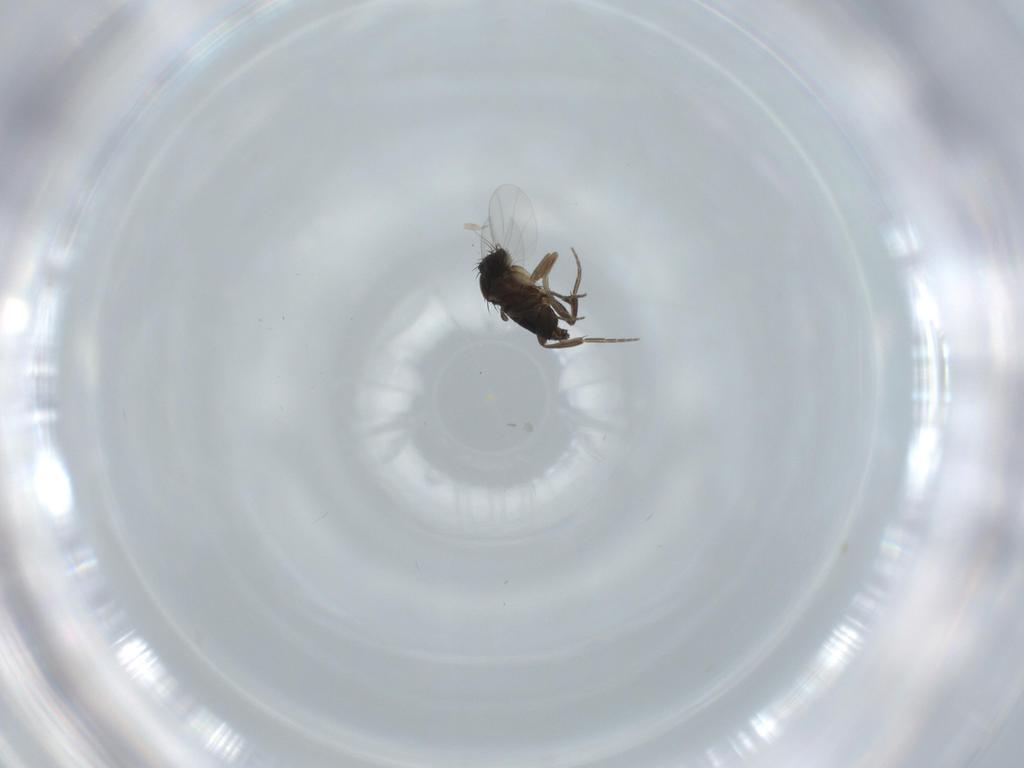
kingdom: Animalia
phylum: Arthropoda
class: Insecta
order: Diptera
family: Phoridae
